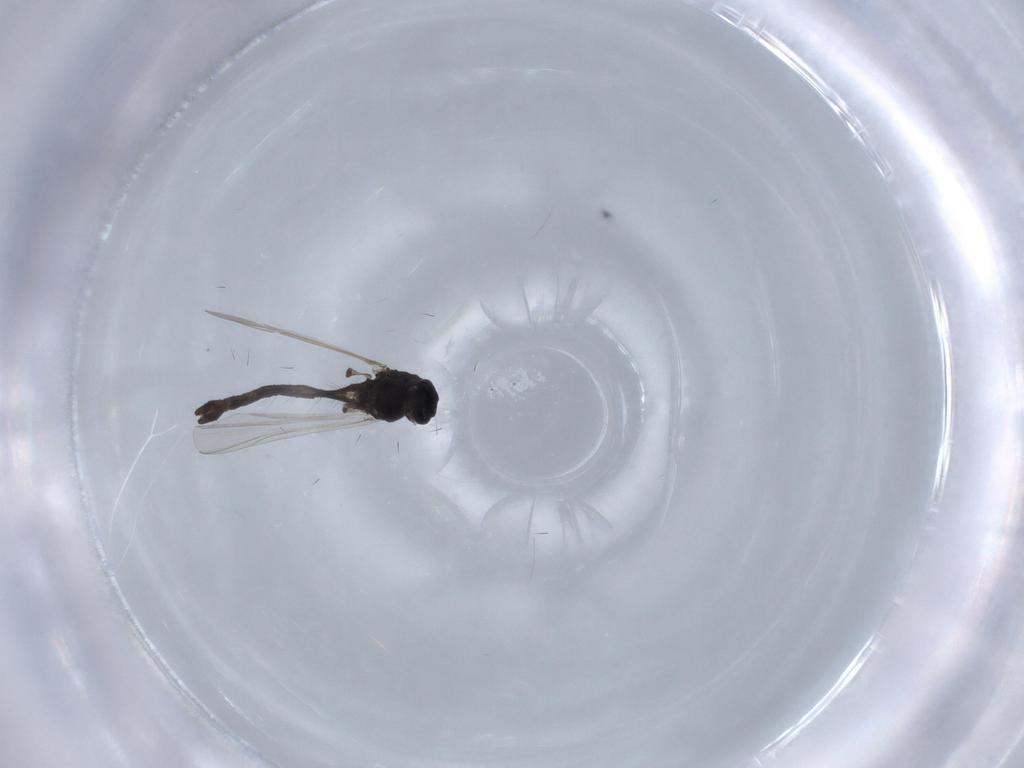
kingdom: Animalia
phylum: Arthropoda
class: Insecta
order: Diptera
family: Chironomidae
